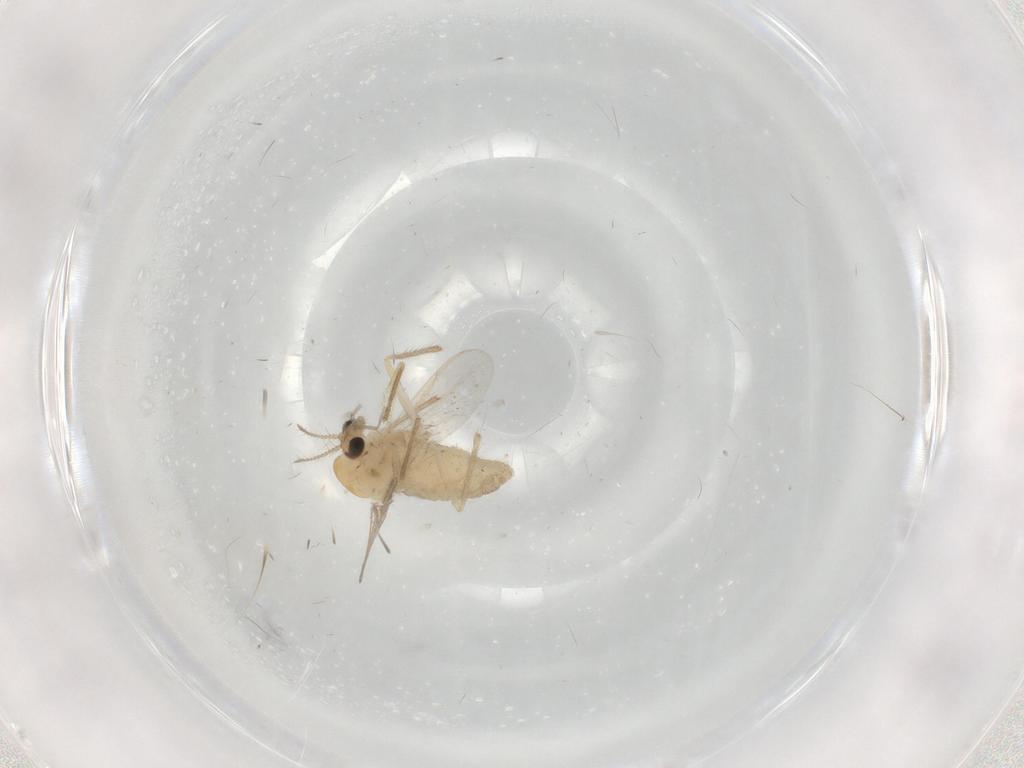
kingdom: Animalia
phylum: Arthropoda
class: Insecta
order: Diptera
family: Chironomidae
